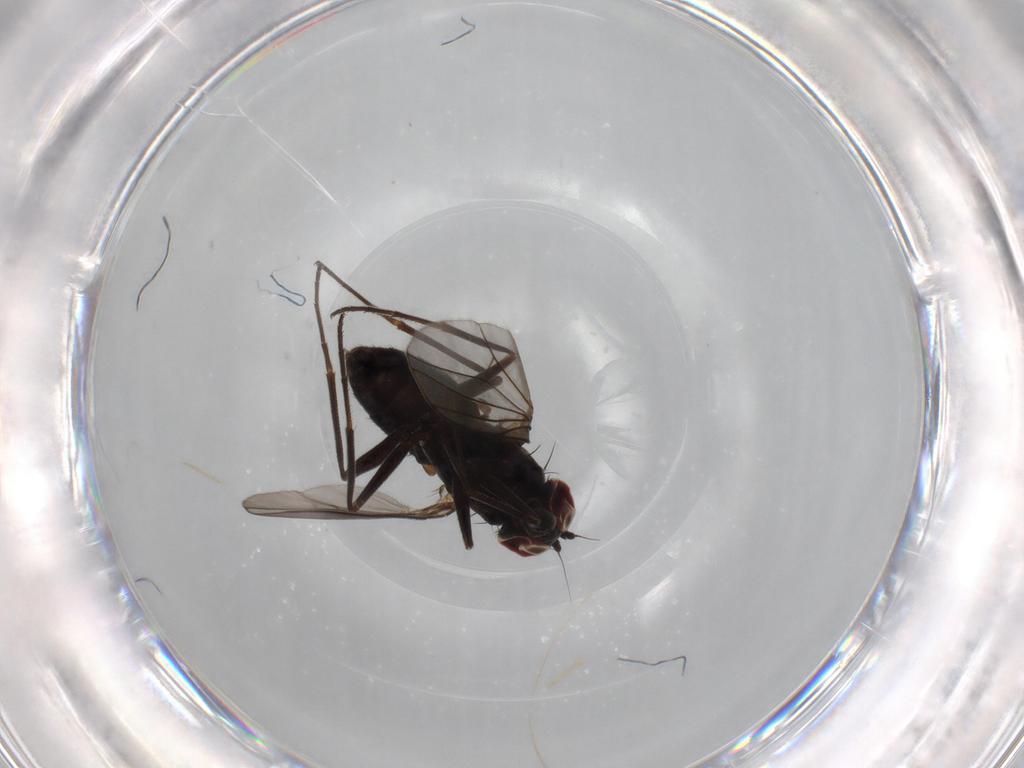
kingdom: Animalia
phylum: Arthropoda
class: Insecta
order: Diptera
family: Dolichopodidae
